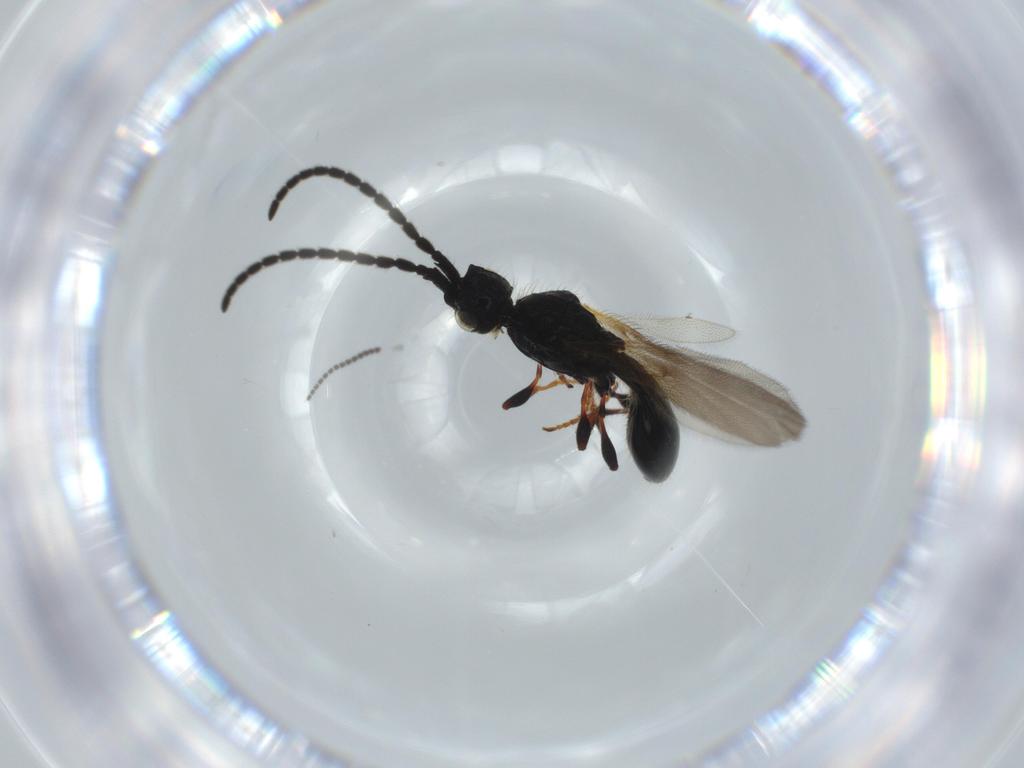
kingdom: Animalia
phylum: Arthropoda
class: Insecta
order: Hymenoptera
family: Diapriidae
